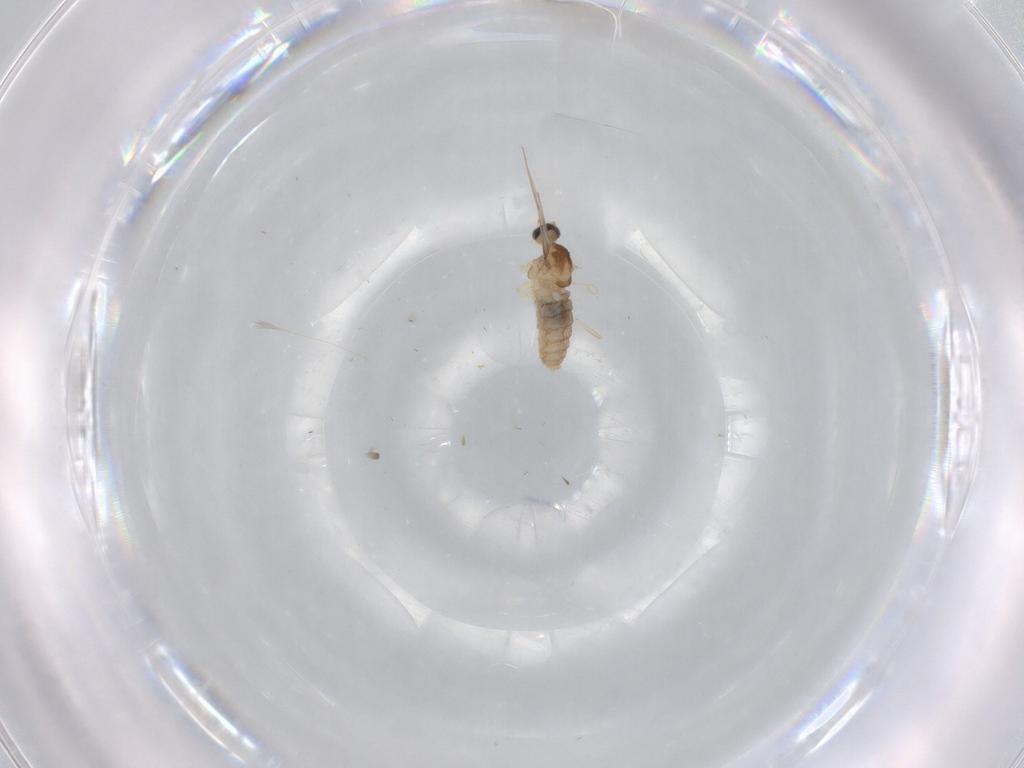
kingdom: Animalia
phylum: Arthropoda
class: Insecta
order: Diptera
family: Cecidomyiidae
